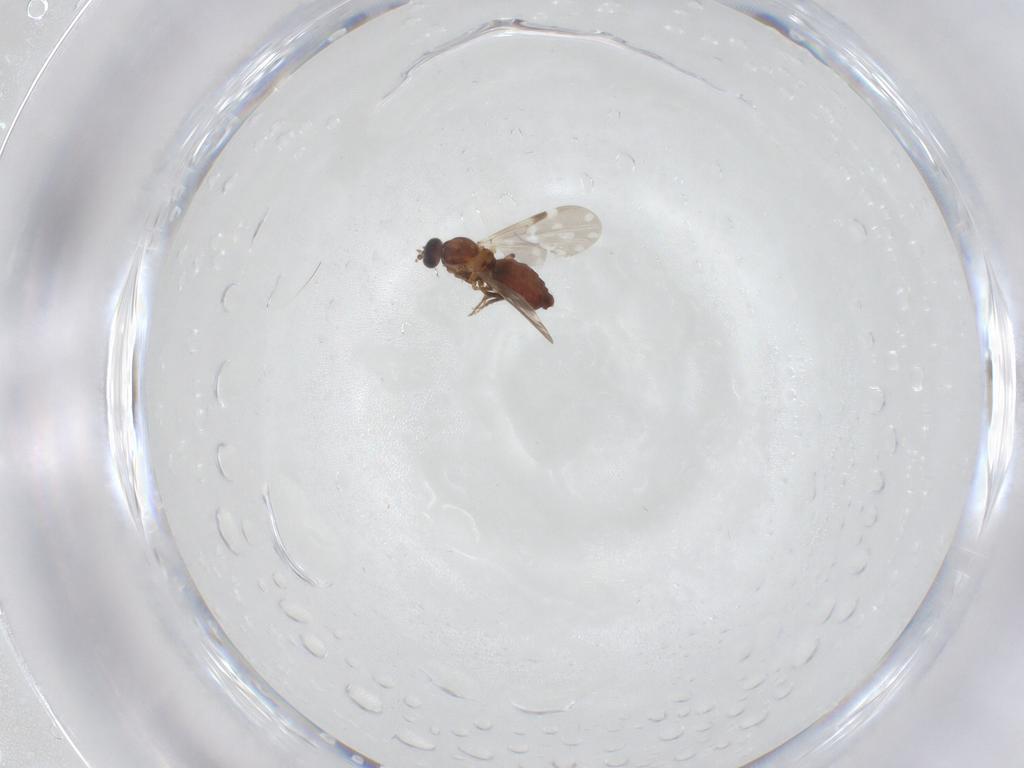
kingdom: Animalia
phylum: Arthropoda
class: Insecta
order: Diptera
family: Ceratopogonidae
